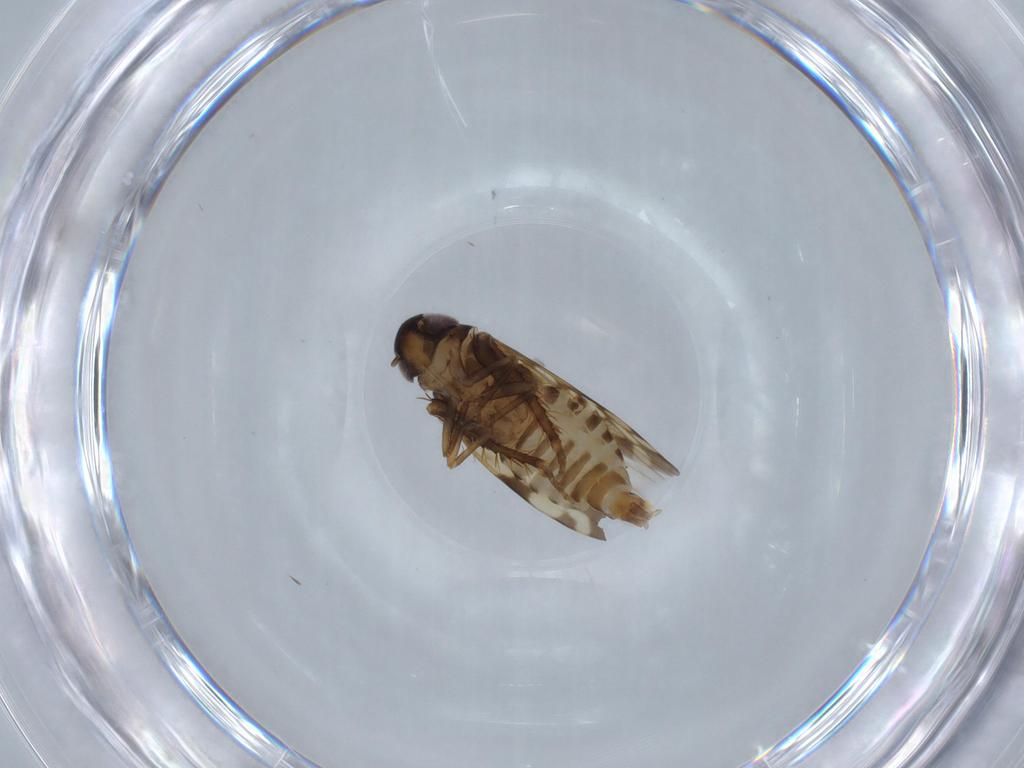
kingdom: Animalia
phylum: Arthropoda
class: Insecta
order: Hemiptera
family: Cicadellidae
